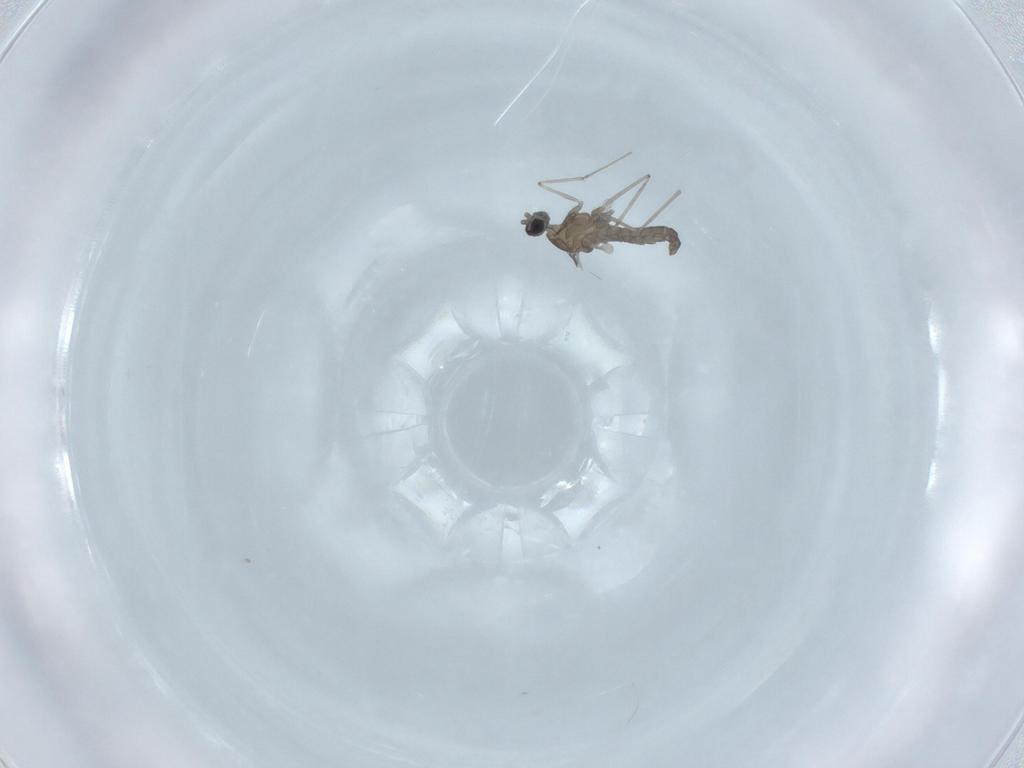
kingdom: Animalia
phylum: Arthropoda
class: Insecta
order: Diptera
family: Cecidomyiidae
